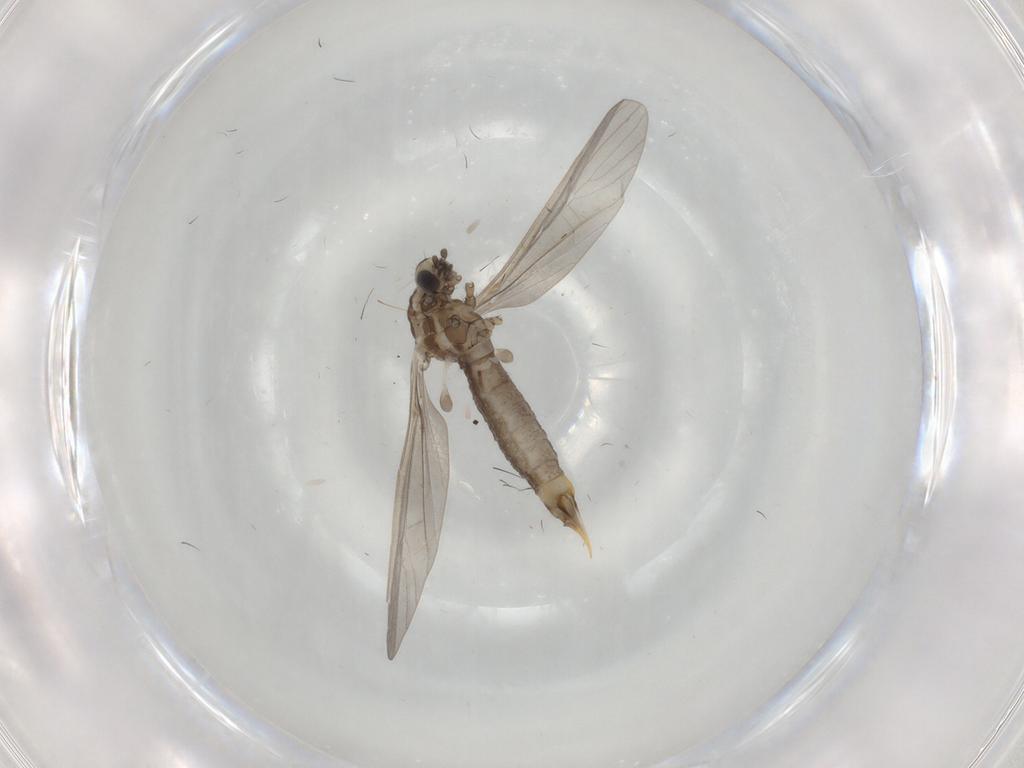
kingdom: Animalia
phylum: Arthropoda
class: Insecta
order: Diptera
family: Limoniidae
